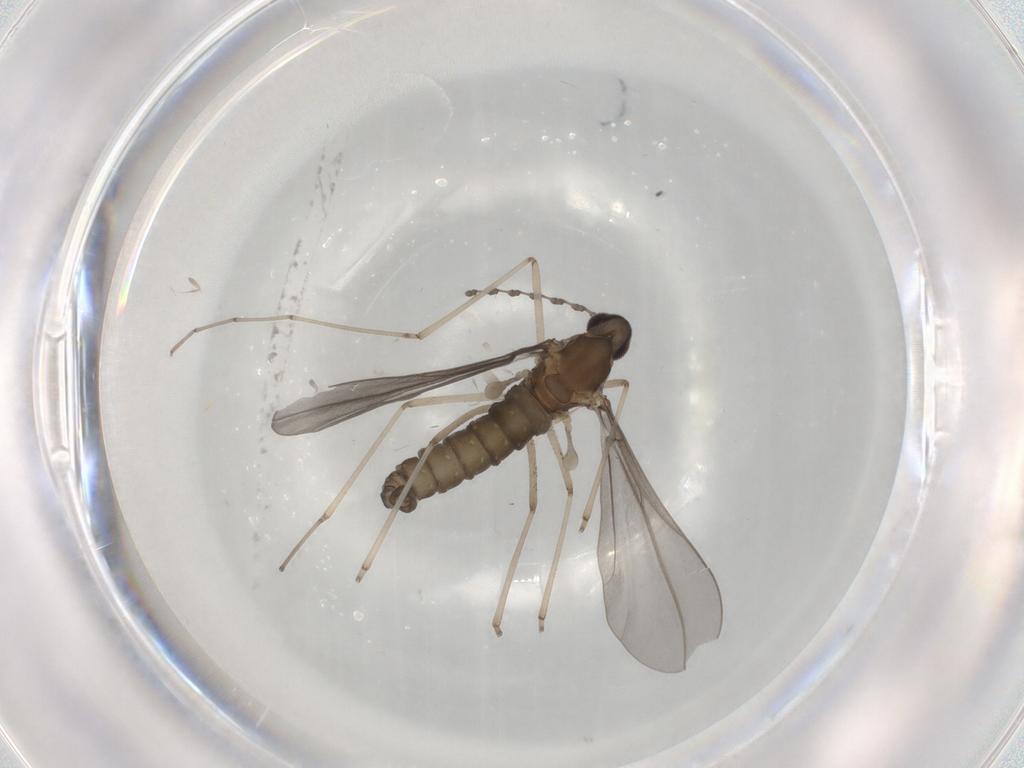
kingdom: Animalia
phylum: Arthropoda
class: Insecta
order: Diptera
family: Cecidomyiidae
